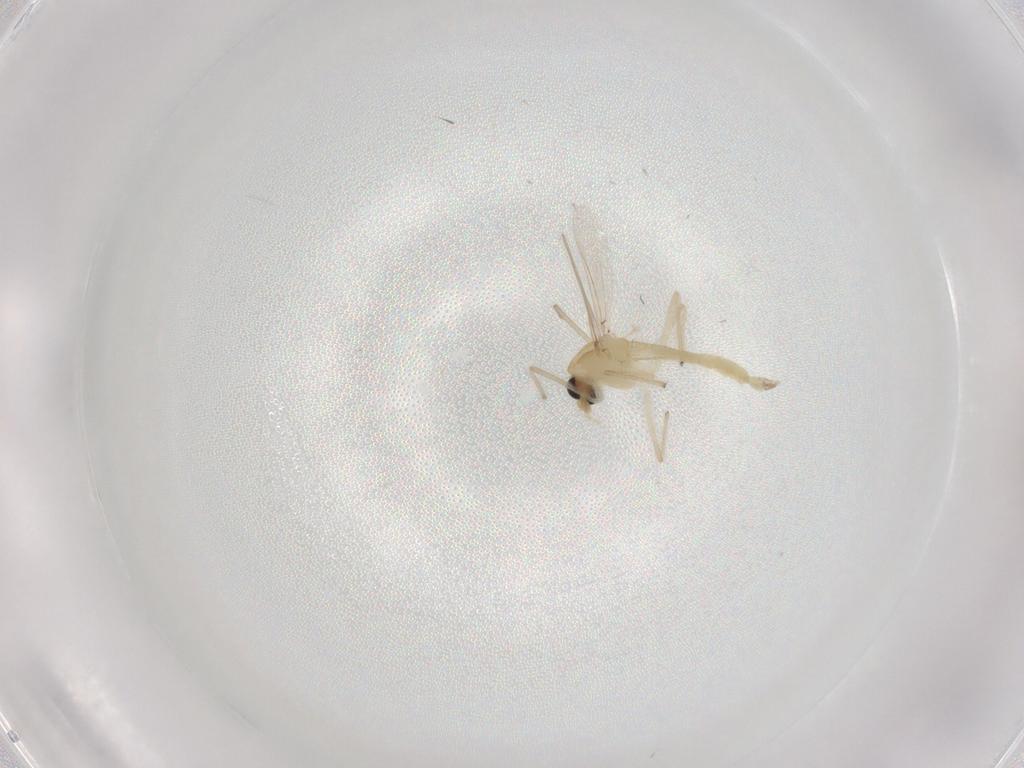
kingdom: Animalia
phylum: Arthropoda
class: Insecta
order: Diptera
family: Chironomidae
